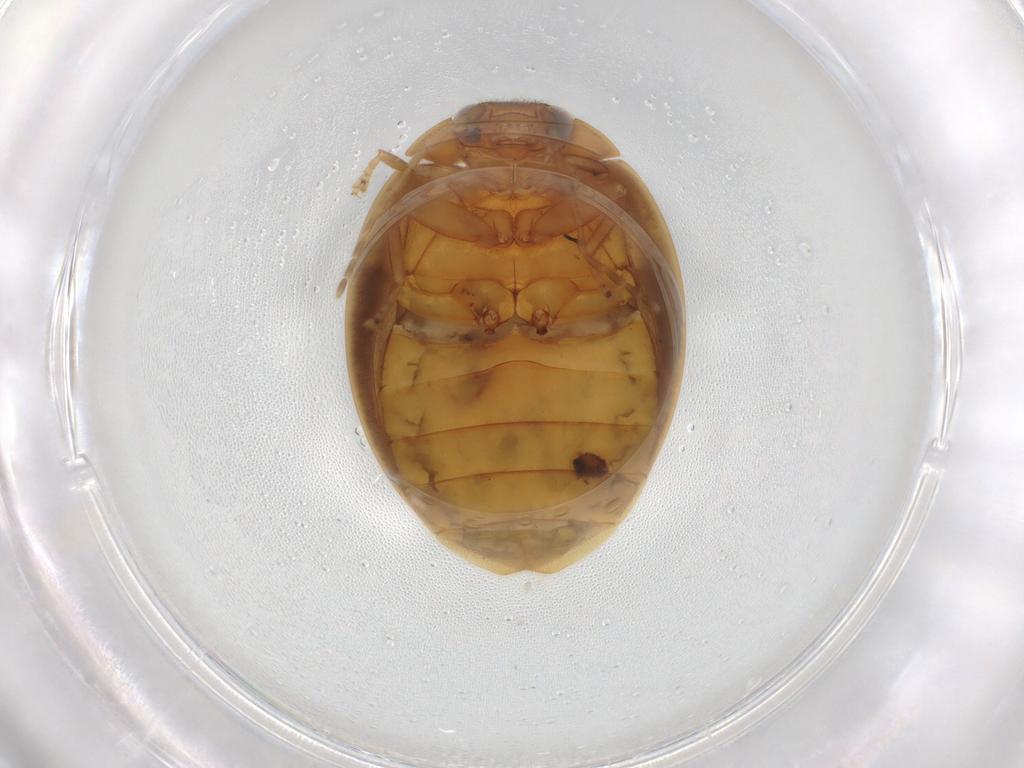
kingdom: Animalia
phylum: Arthropoda
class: Insecta
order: Coleoptera
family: Scirtidae
